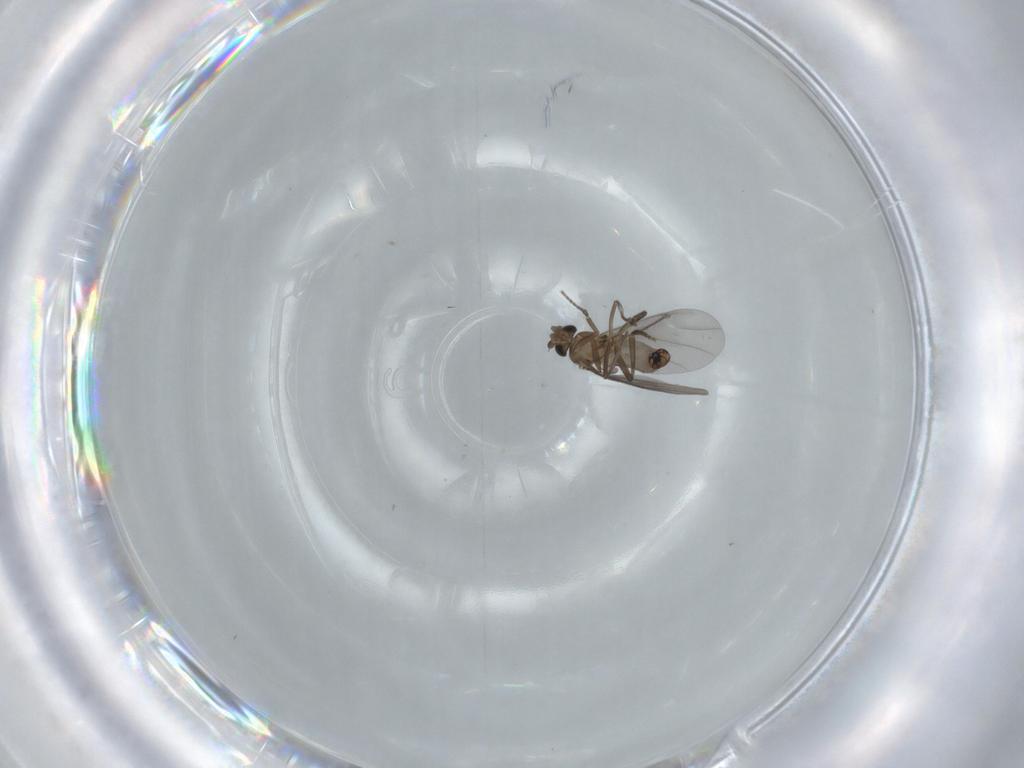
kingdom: Animalia
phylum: Arthropoda
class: Insecta
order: Diptera
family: Phoridae
